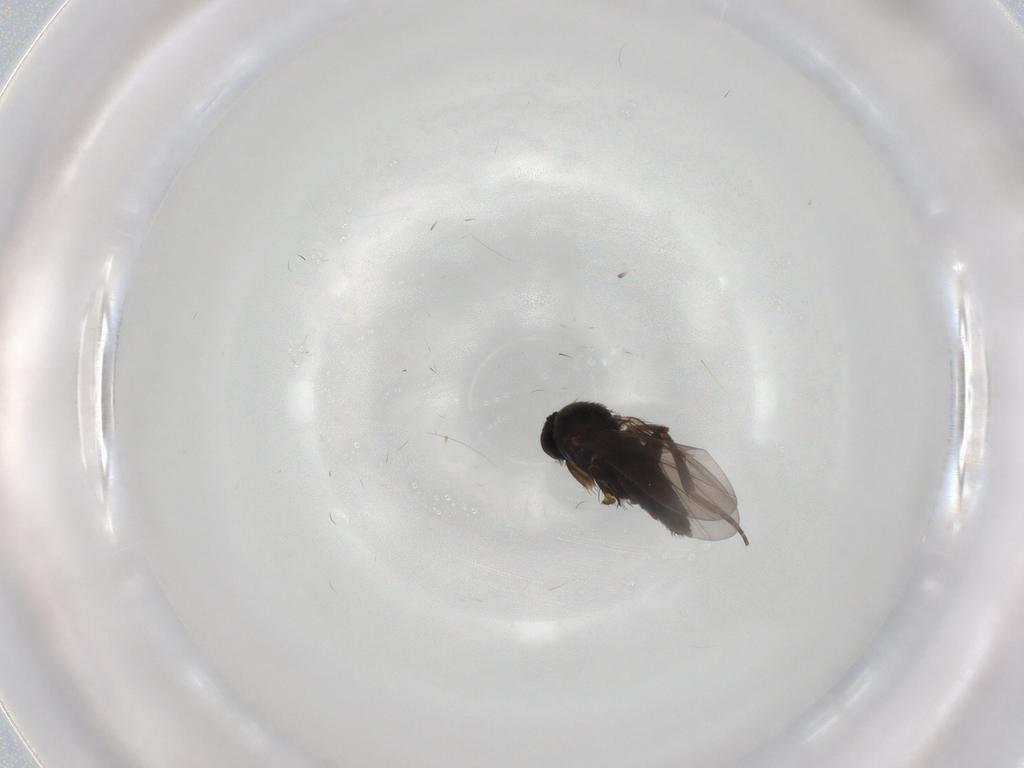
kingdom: Animalia
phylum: Arthropoda
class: Insecta
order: Diptera
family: Phoridae
